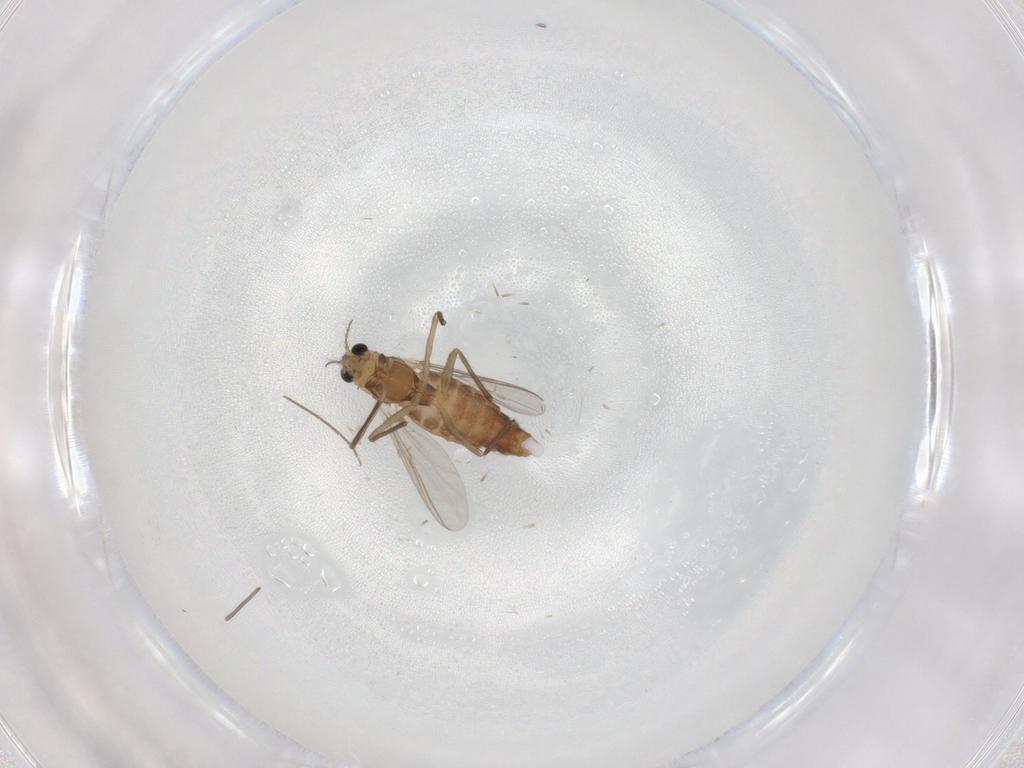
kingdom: Animalia
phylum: Arthropoda
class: Insecta
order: Diptera
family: Chironomidae
